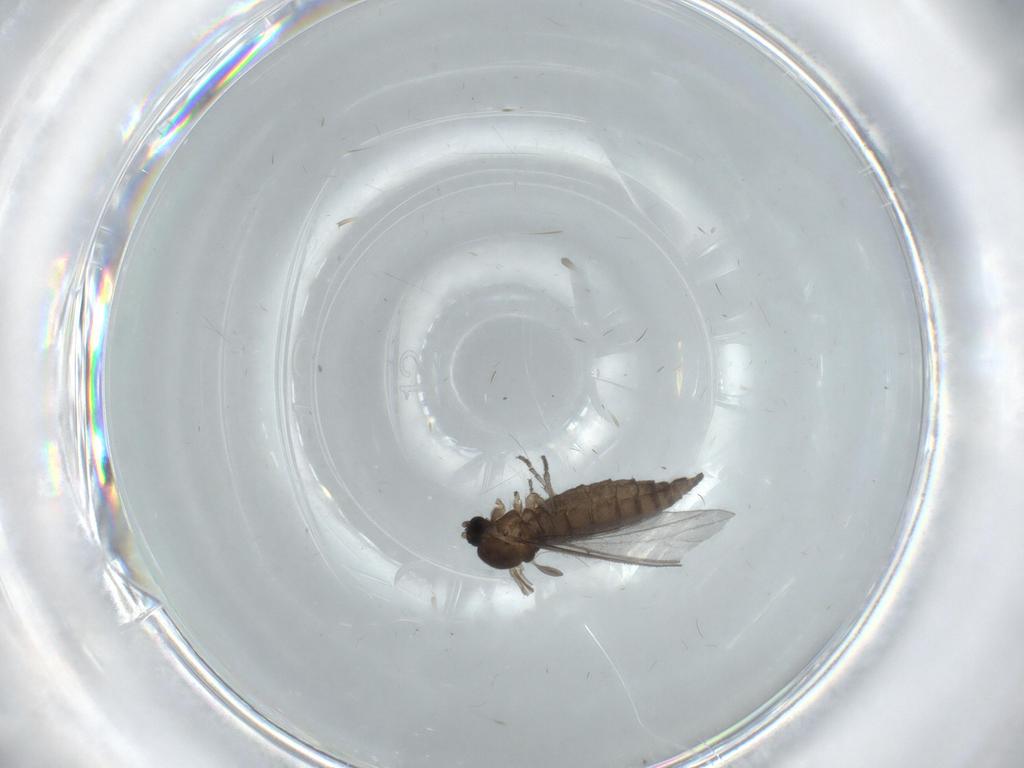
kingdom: Animalia
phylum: Arthropoda
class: Insecta
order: Diptera
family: Sciaridae
